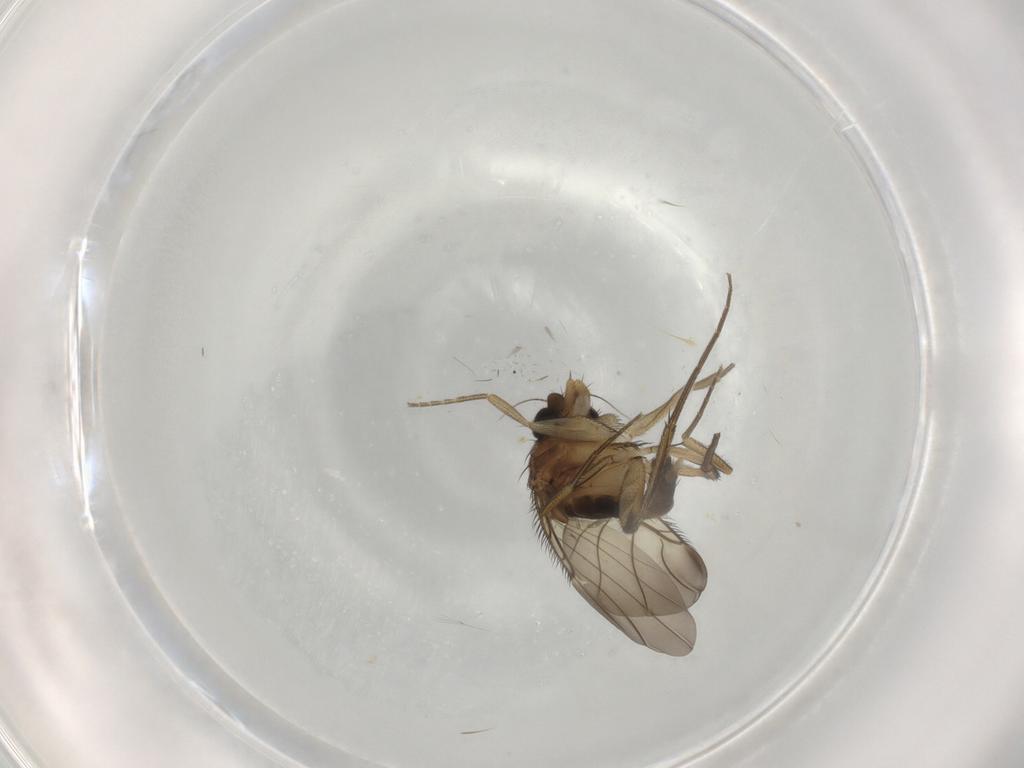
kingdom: Animalia
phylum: Arthropoda
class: Insecta
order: Diptera
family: Phoridae
